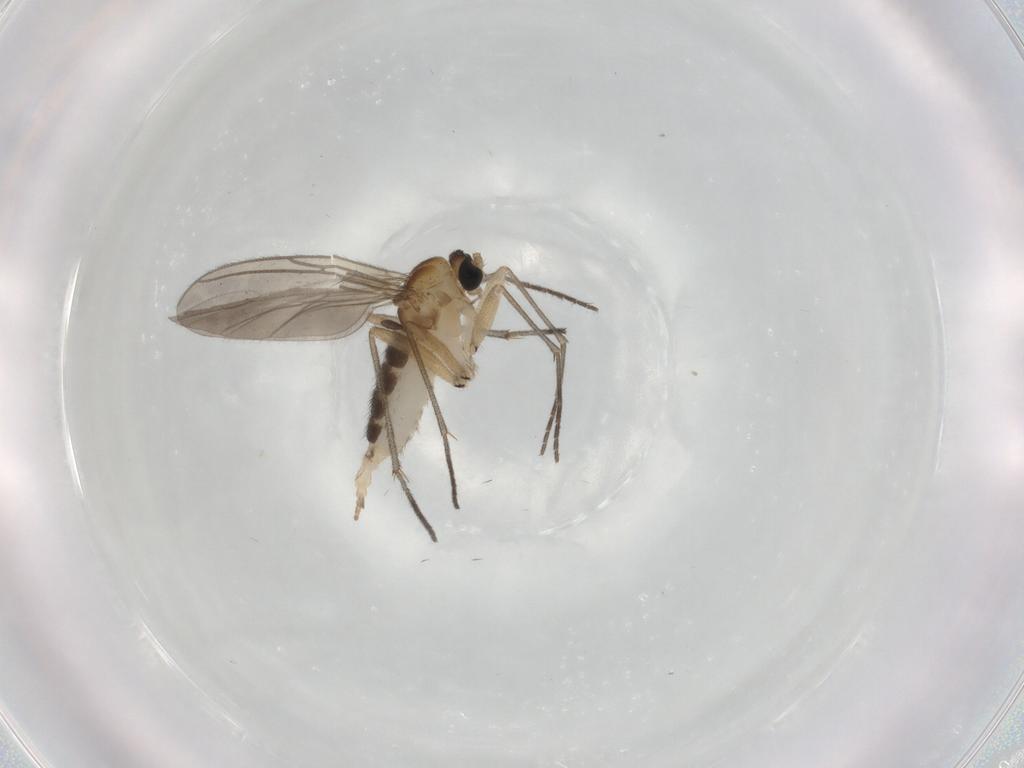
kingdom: Animalia
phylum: Arthropoda
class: Insecta
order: Diptera
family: Sciaridae
